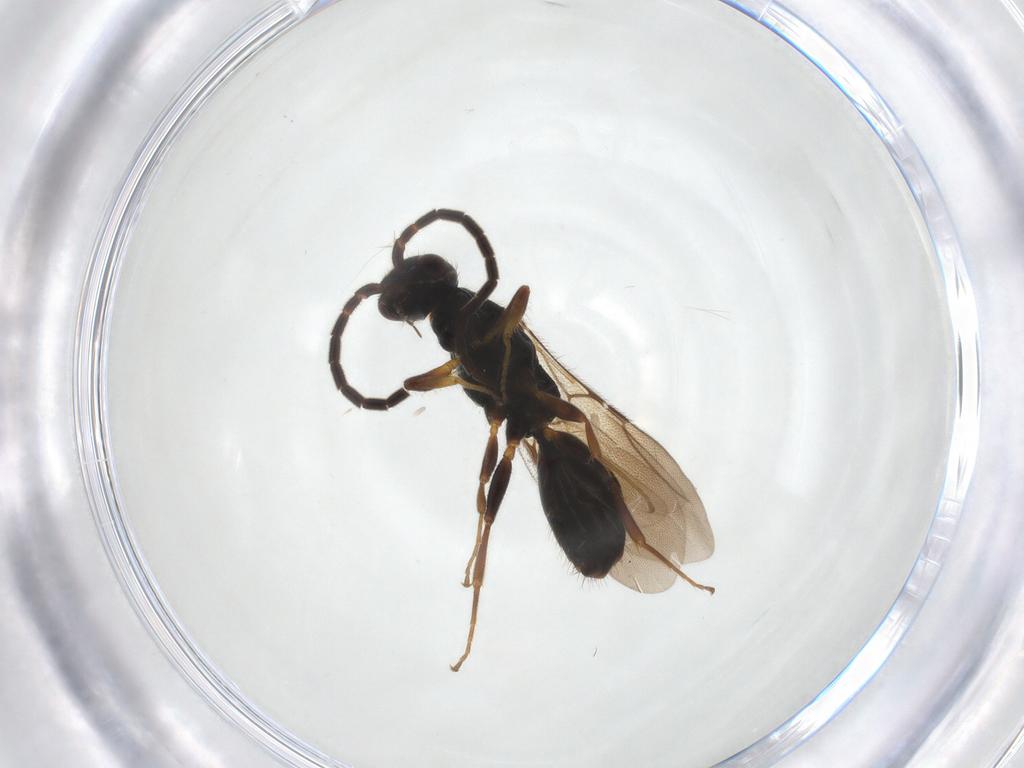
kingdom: Animalia
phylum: Arthropoda
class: Insecta
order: Hymenoptera
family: Bethylidae
